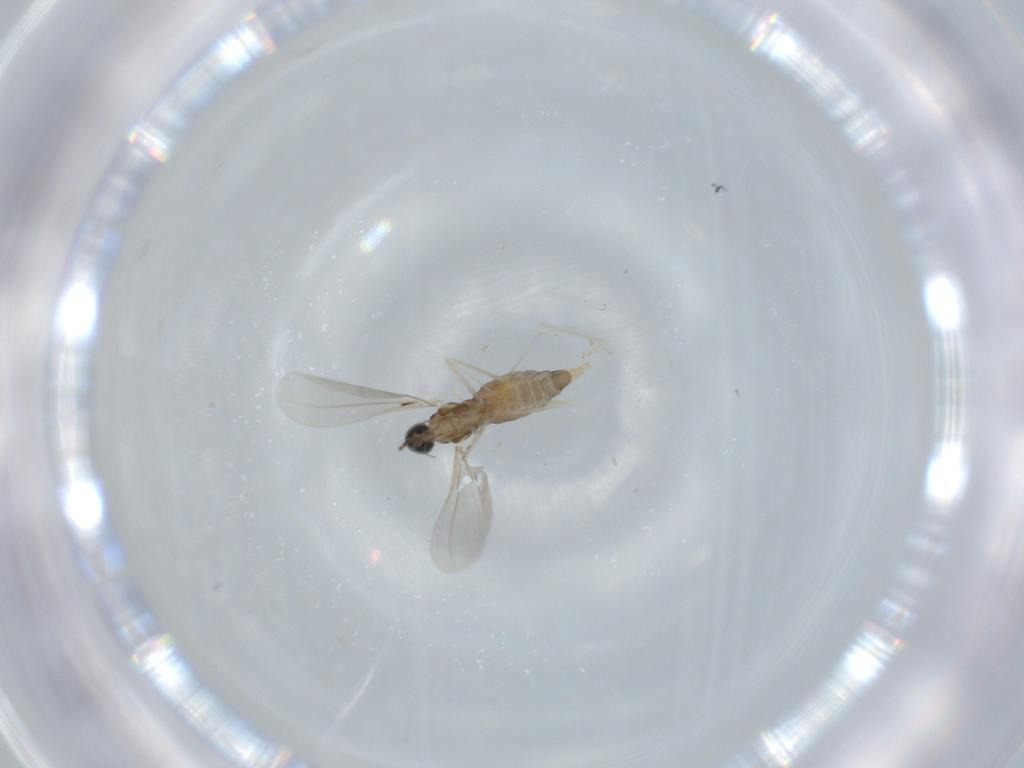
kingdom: Animalia
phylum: Arthropoda
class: Insecta
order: Diptera
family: Cecidomyiidae
